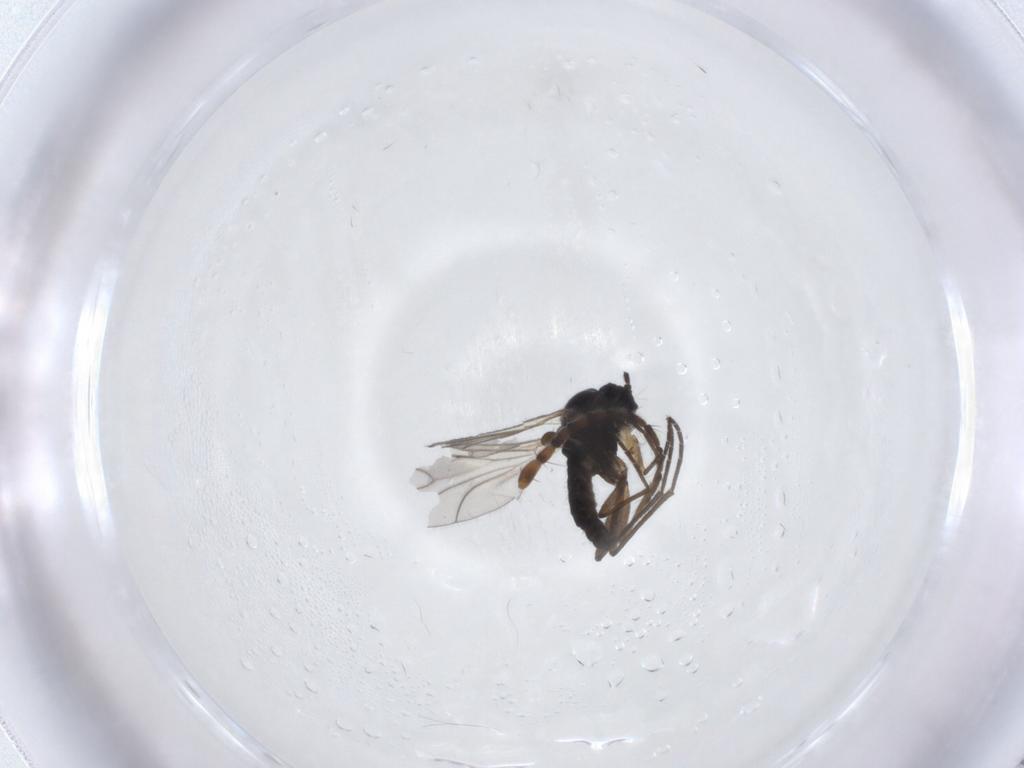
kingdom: Animalia
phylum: Arthropoda
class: Insecta
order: Diptera
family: Sciaridae
